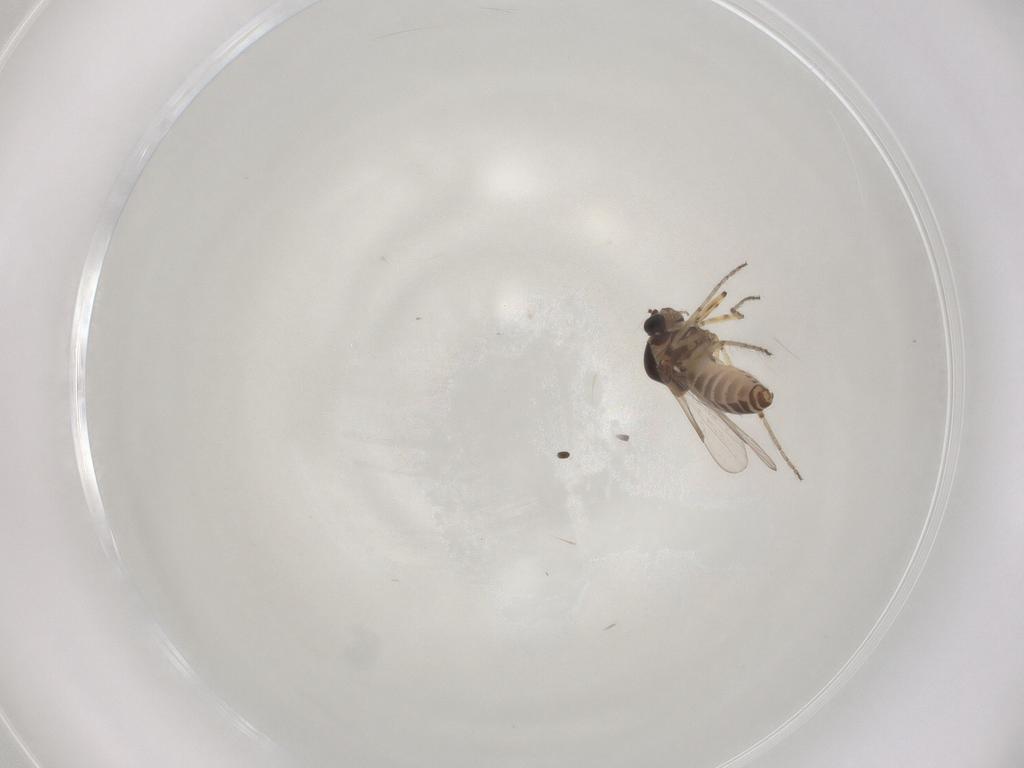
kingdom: Animalia
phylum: Arthropoda
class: Insecta
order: Diptera
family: Ceratopogonidae
